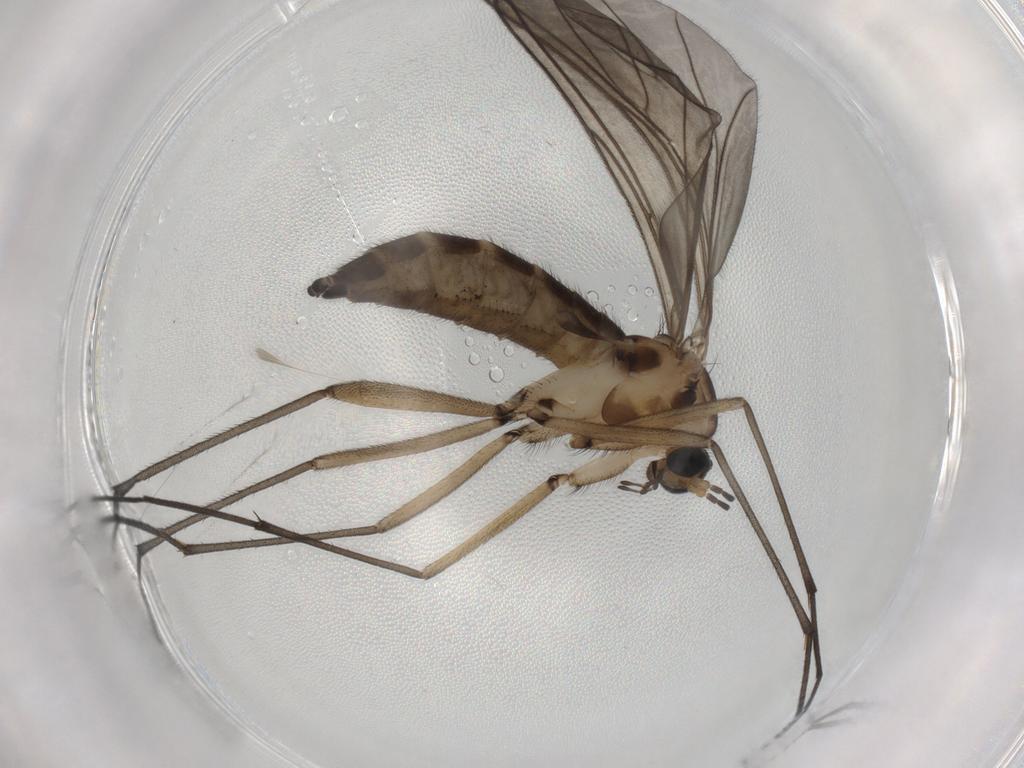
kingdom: Animalia
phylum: Arthropoda
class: Insecta
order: Diptera
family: Sciaridae
